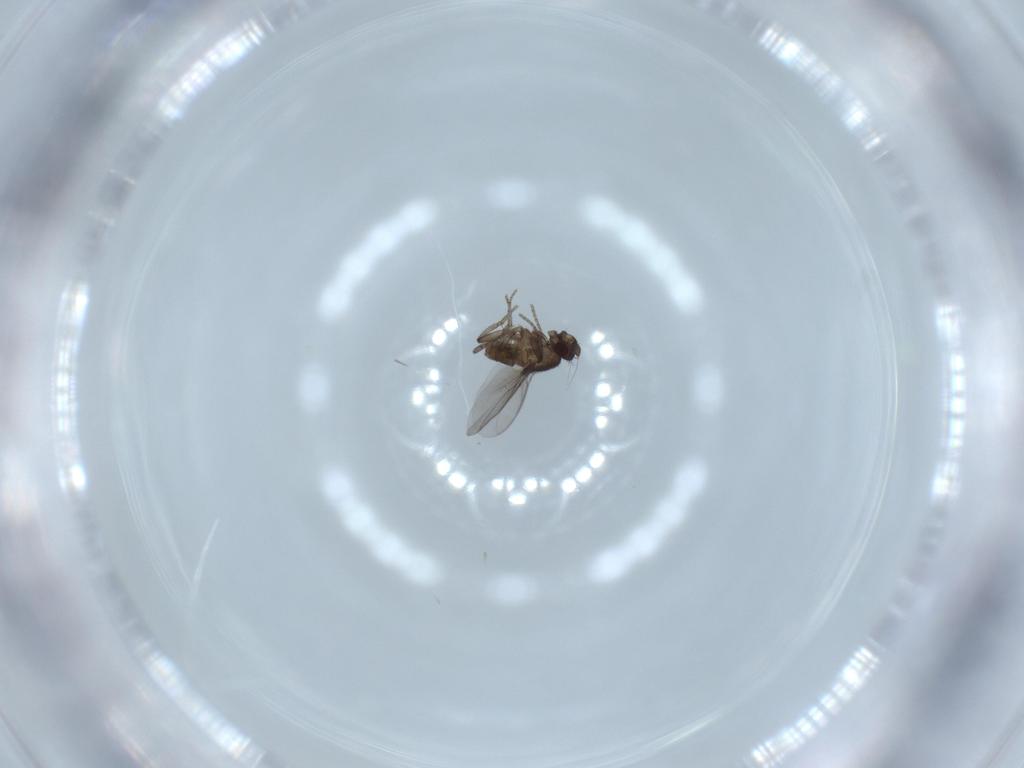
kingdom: Animalia
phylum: Arthropoda
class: Insecta
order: Diptera
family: Sphaeroceridae
